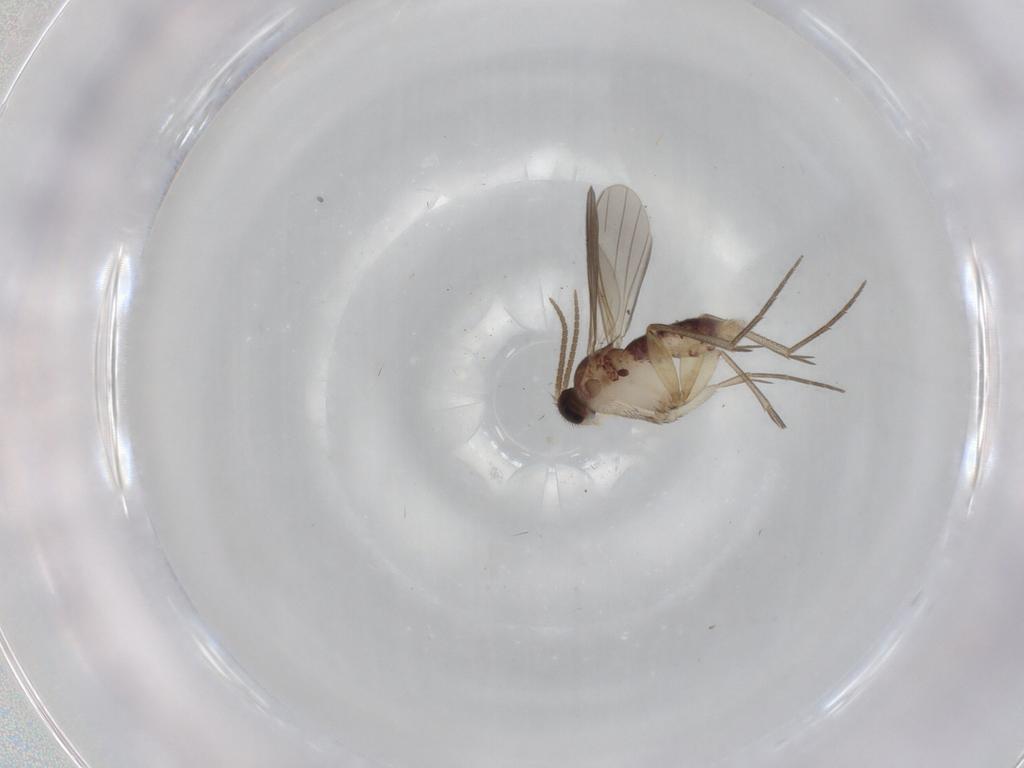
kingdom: Animalia
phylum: Arthropoda
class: Insecta
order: Diptera
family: Mycetophilidae
